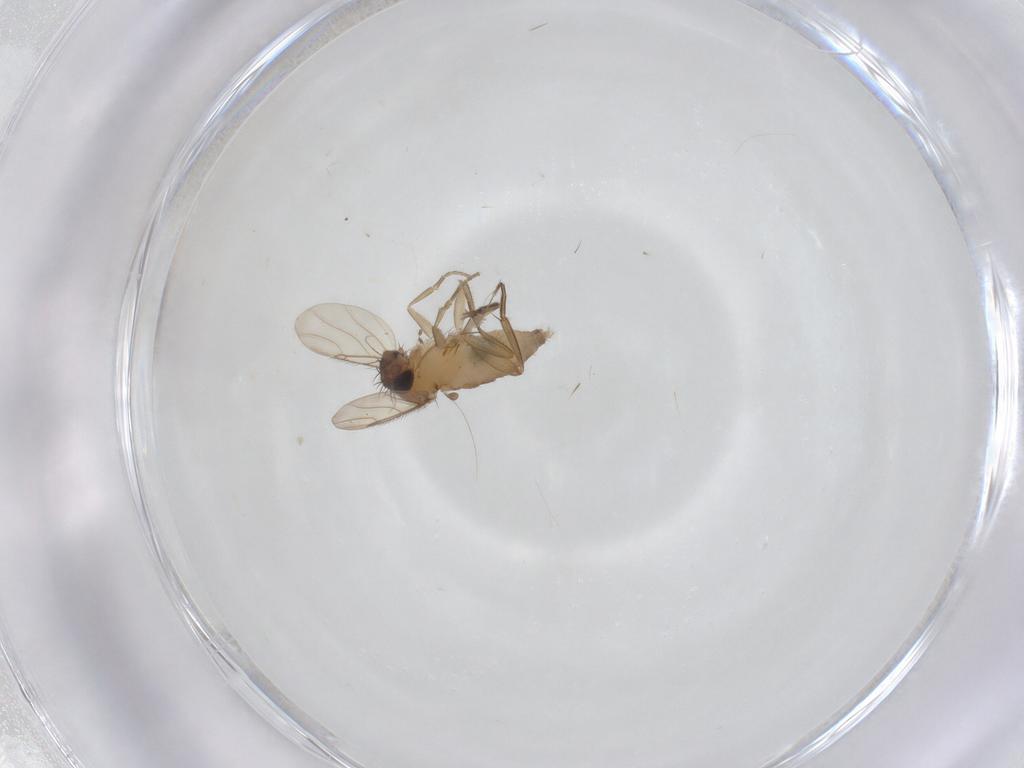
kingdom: Animalia
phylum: Arthropoda
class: Insecta
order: Diptera
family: Phoridae
